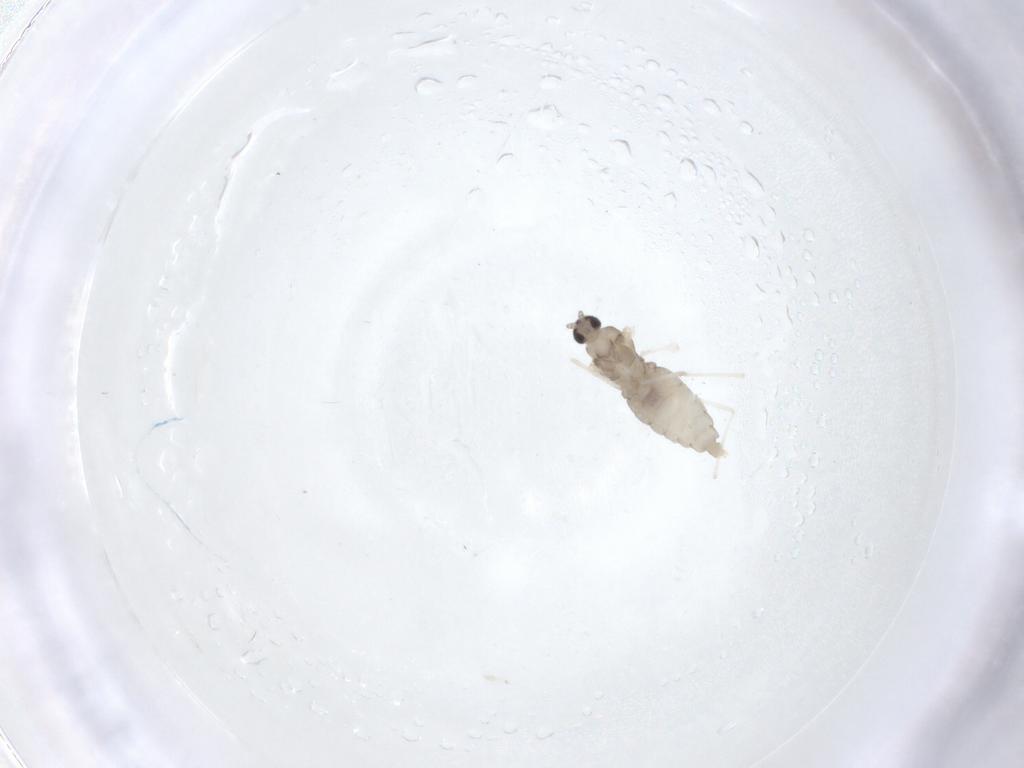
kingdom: Animalia
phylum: Arthropoda
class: Insecta
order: Diptera
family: Cecidomyiidae
